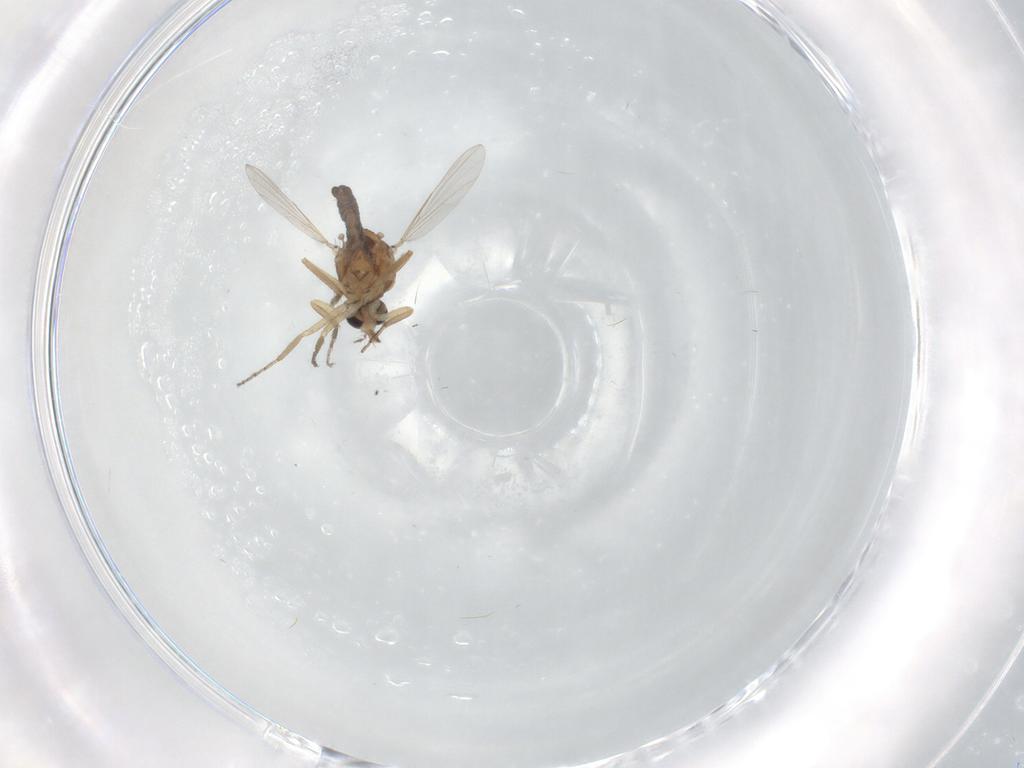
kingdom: Animalia
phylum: Arthropoda
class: Insecta
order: Diptera
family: Ceratopogonidae
